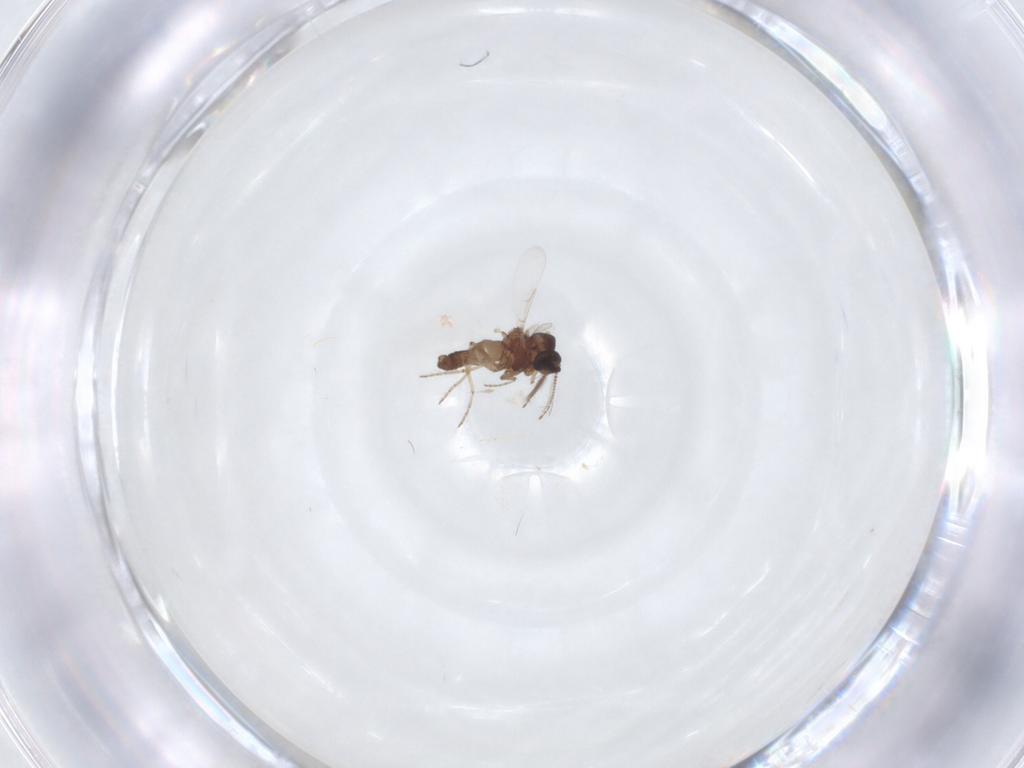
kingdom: Animalia
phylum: Arthropoda
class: Insecta
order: Diptera
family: Ceratopogonidae
